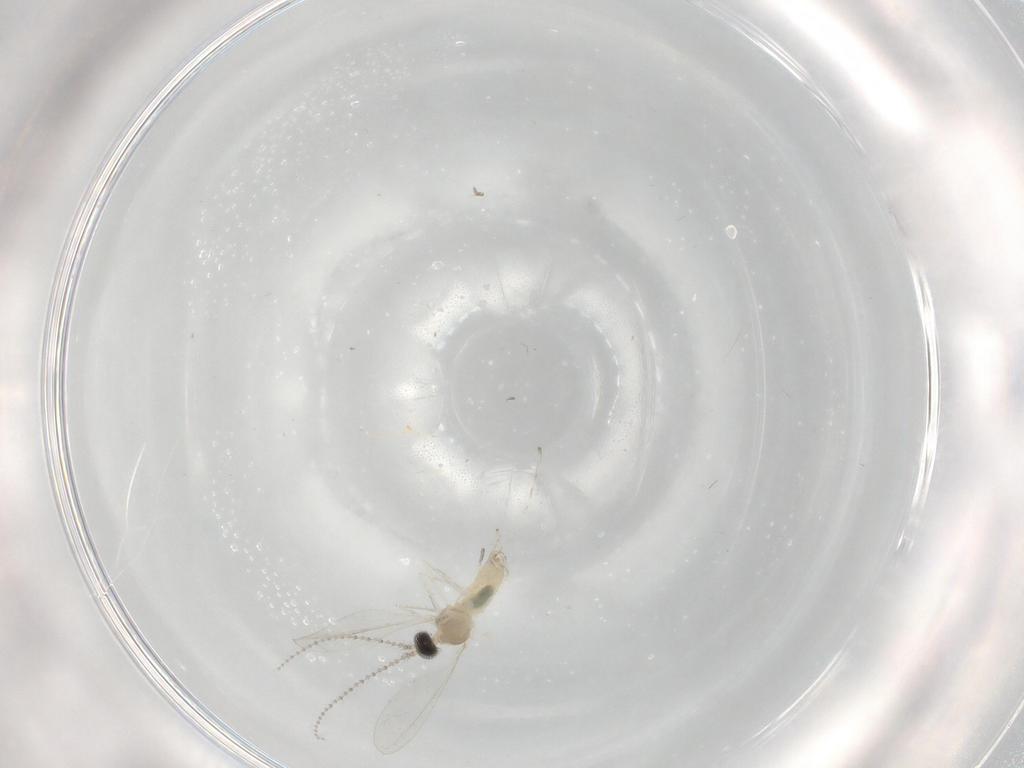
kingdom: Animalia
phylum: Arthropoda
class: Insecta
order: Diptera
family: Cecidomyiidae
